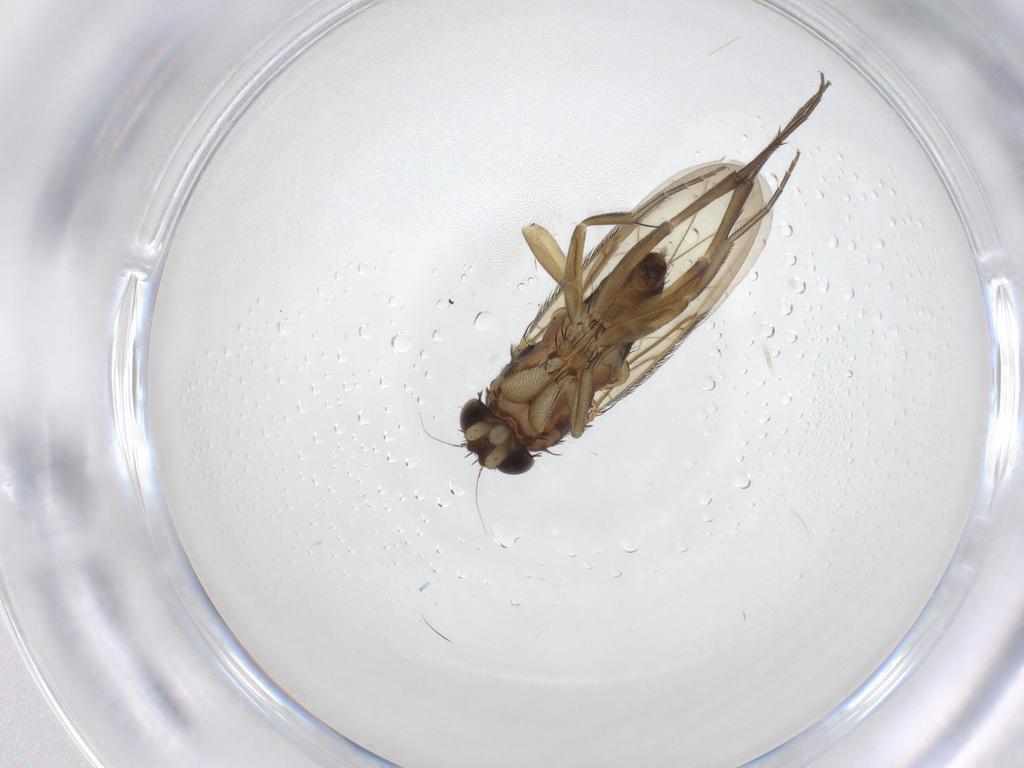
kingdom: Animalia
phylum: Arthropoda
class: Insecta
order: Diptera
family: Phoridae
